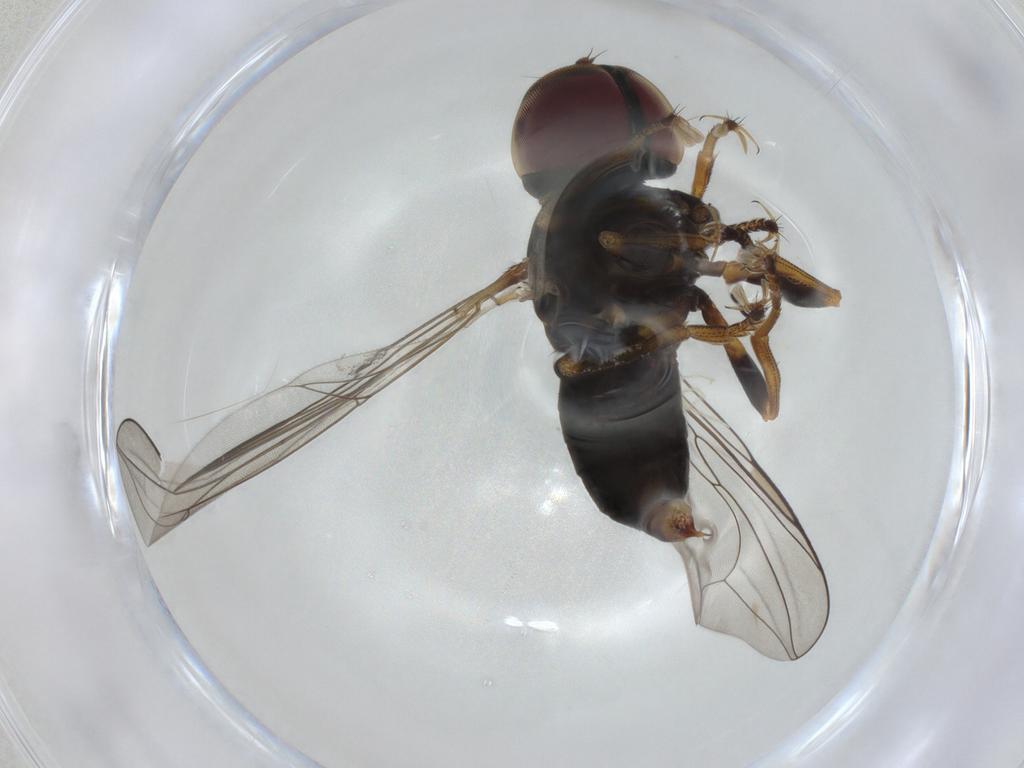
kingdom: Animalia
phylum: Arthropoda
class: Insecta
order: Diptera
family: Pipunculidae
